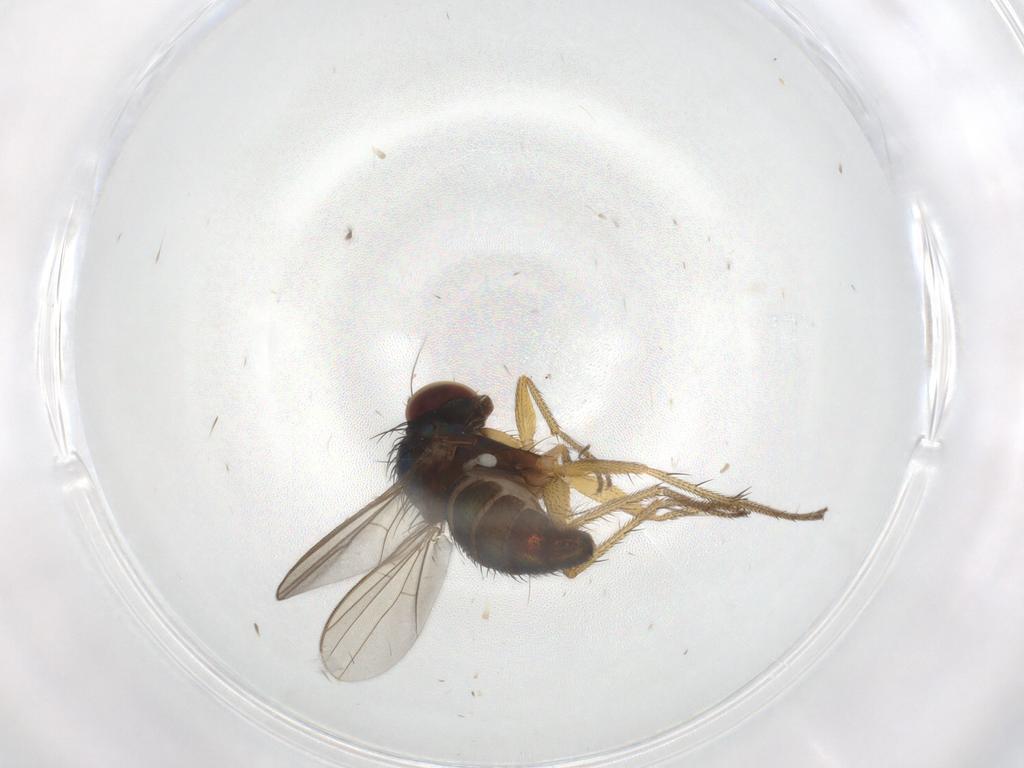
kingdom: Animalia
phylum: Arthropoda
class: Insecta
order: Diptera
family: Dolichopodidae
